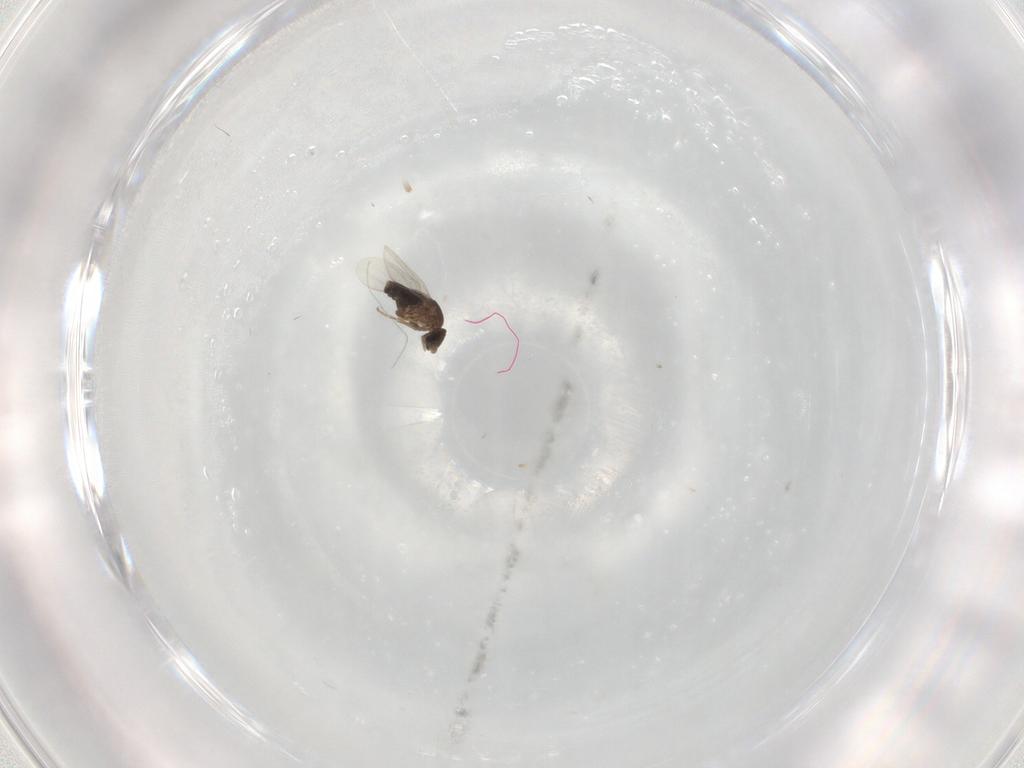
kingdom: Animalia
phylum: Arthropoda
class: Insecta
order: Diptera
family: Phoridae
